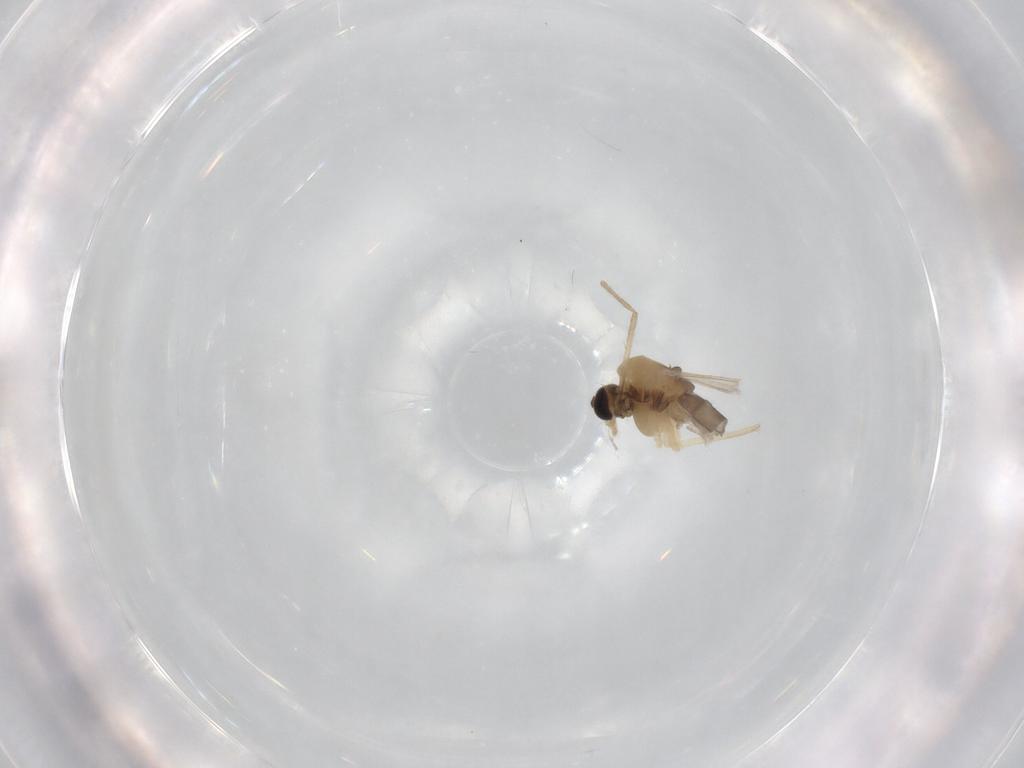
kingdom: Animalia
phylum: Arthropoda
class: Insecta
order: Diptera
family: Chironomidae
